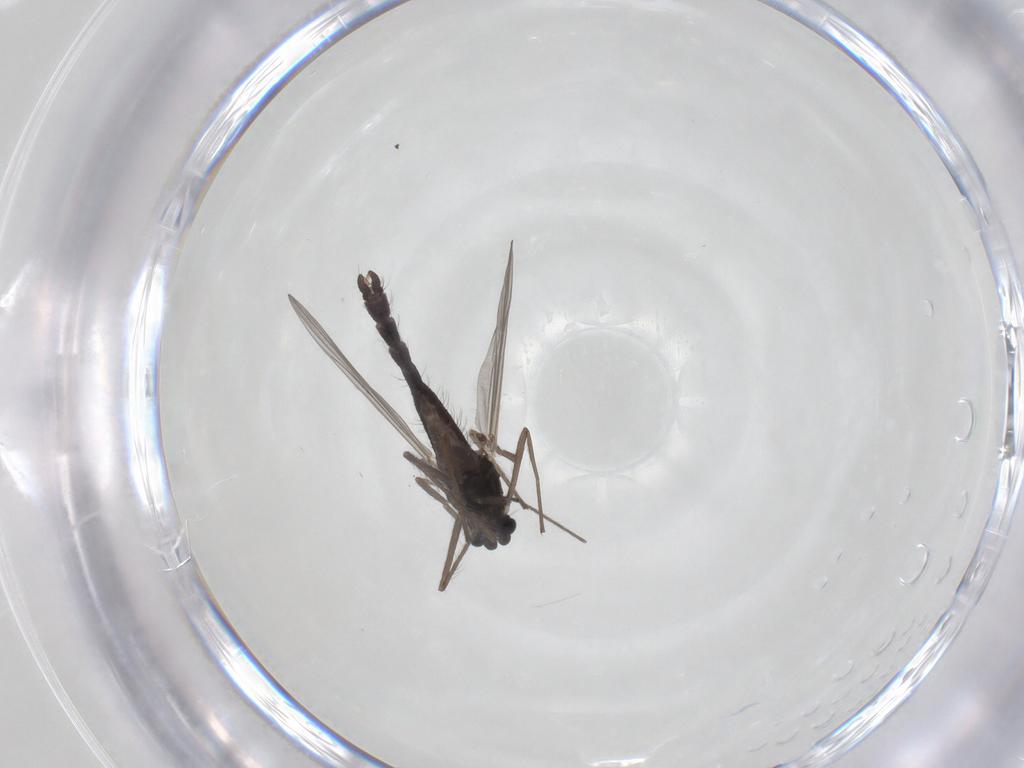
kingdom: Animalia
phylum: Arthropoda
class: Insecta
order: Diptera
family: Chironomidae
